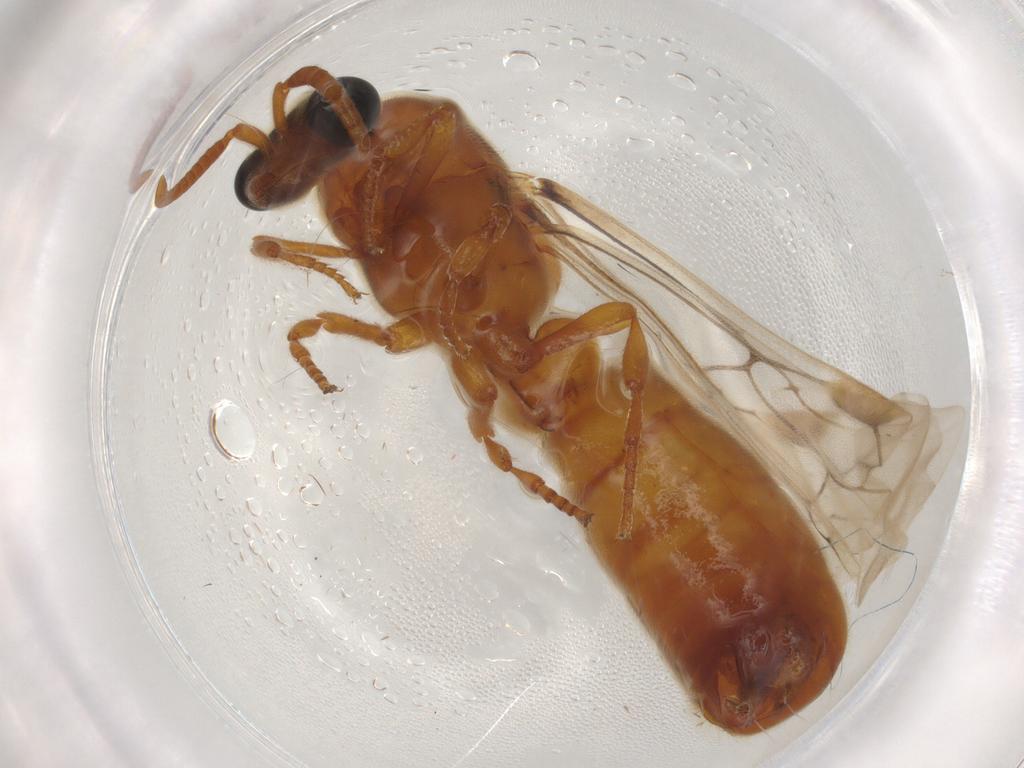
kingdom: Animalia
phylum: Arthropoda
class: Insecta
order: Hymenoptera
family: Formicidae
